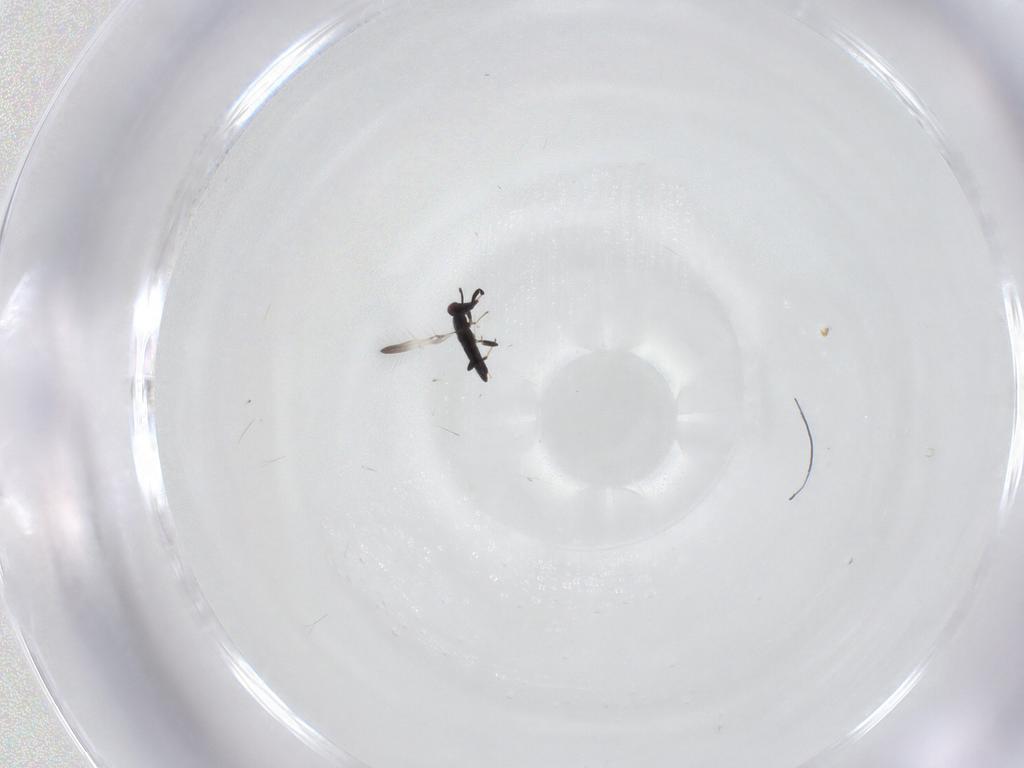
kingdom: Animalia
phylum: Arthropoda
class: Insecta
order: Hymenoptera
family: Mymaridae
